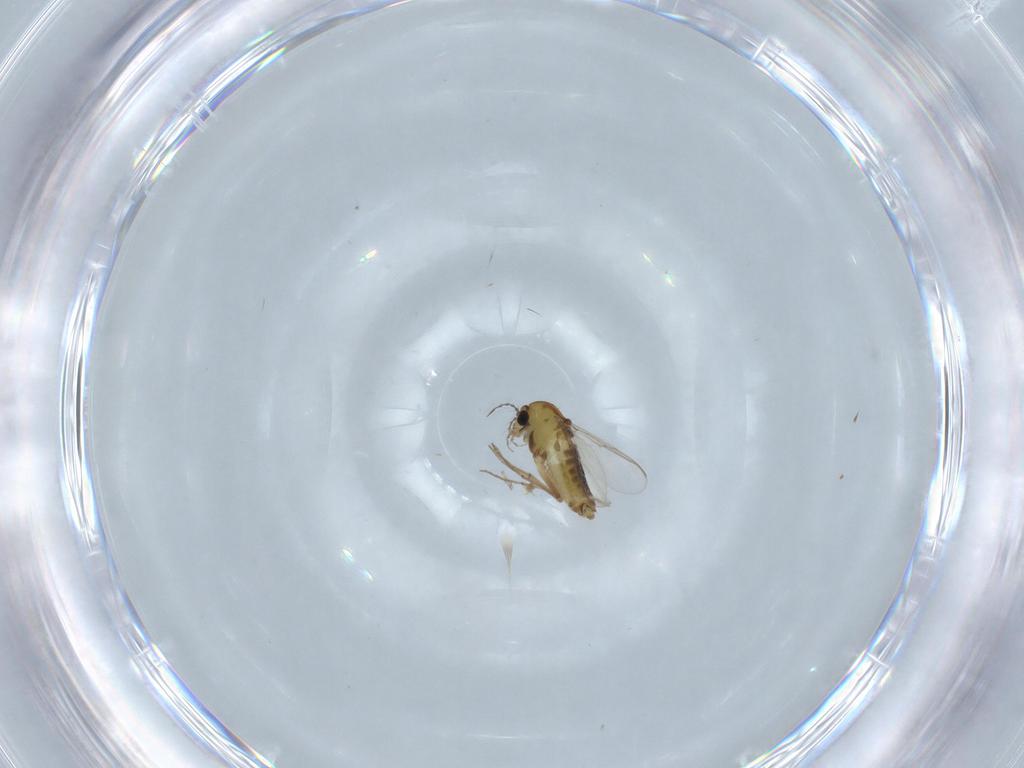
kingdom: Animalia
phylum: Arthropoda
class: Insecta
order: Diptera
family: Chironomidae
